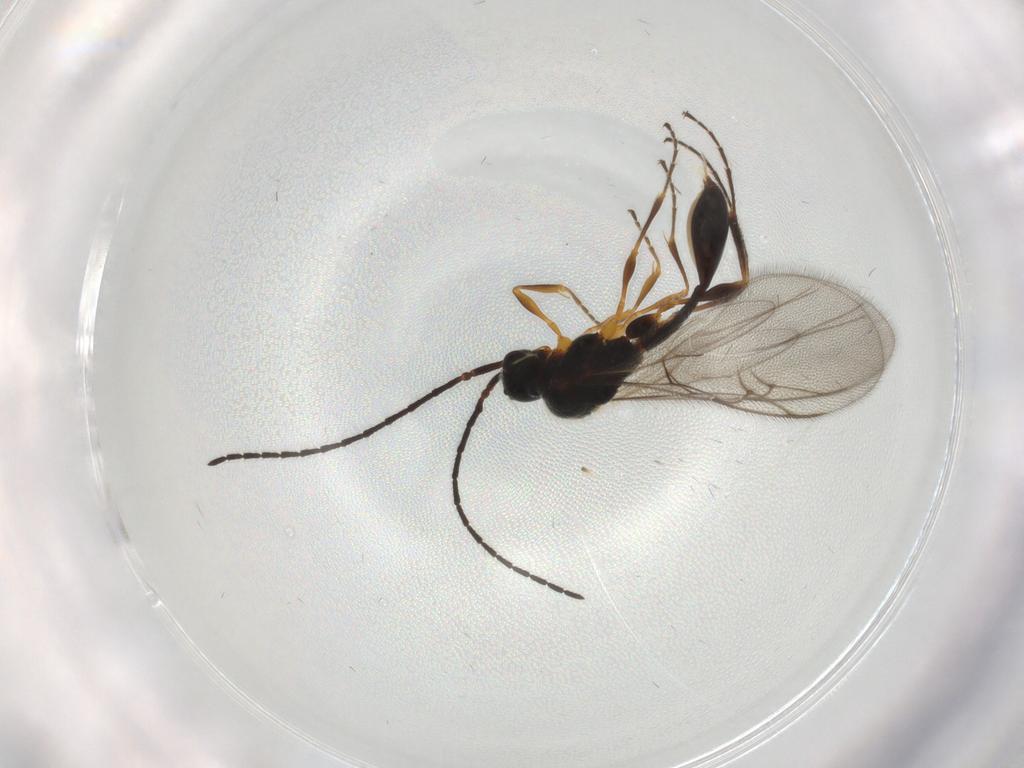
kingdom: Animalia
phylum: Arthropoda
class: Insecta
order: Hymenoptera
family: Diapriidae
